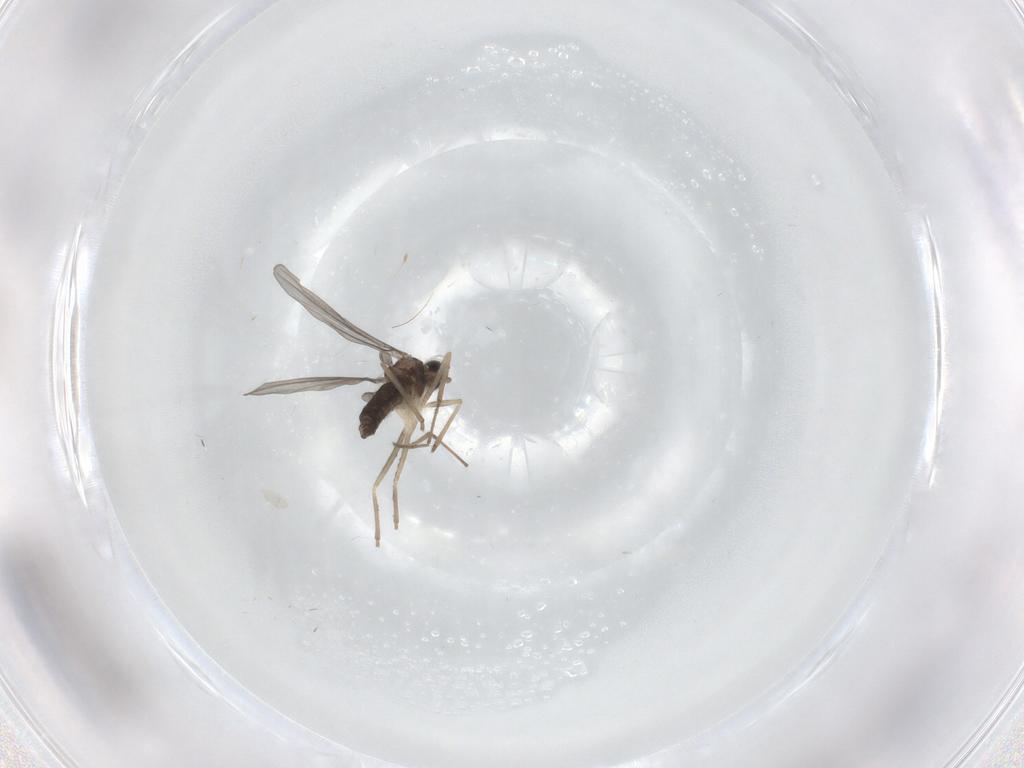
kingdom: Animalia
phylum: Arthropoda
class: Insecta
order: Diptera
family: Cecidomyiidae
